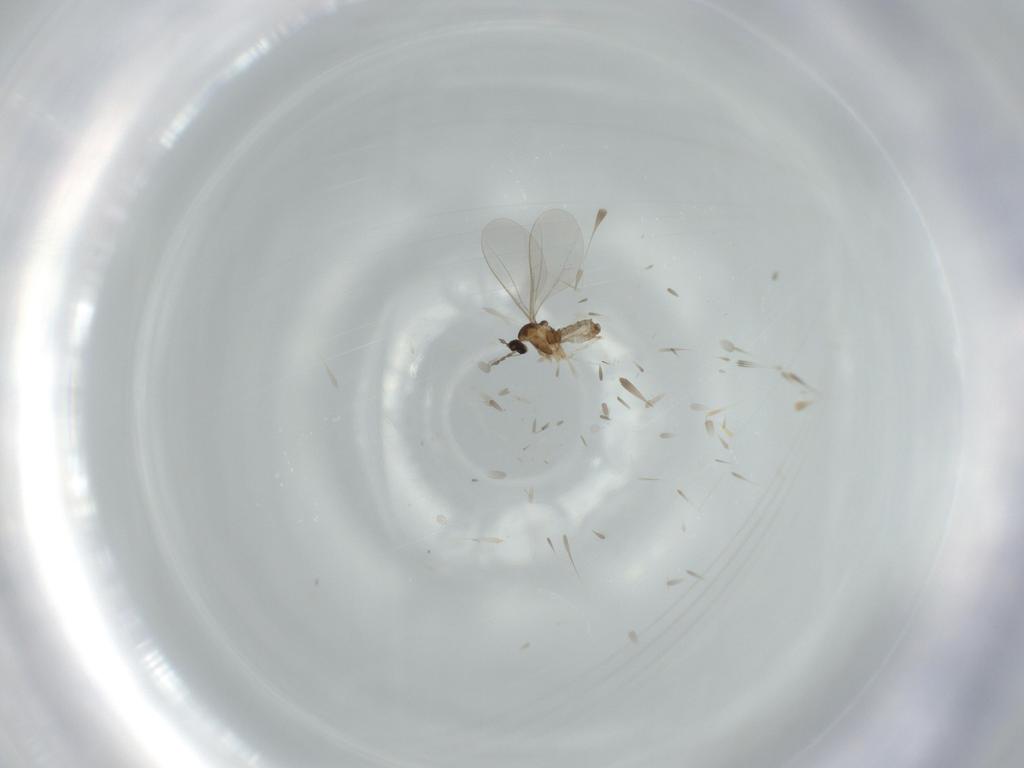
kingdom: Animalia
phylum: Arthropoda
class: Insecta
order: Diptera
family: Cecidomyiidae
